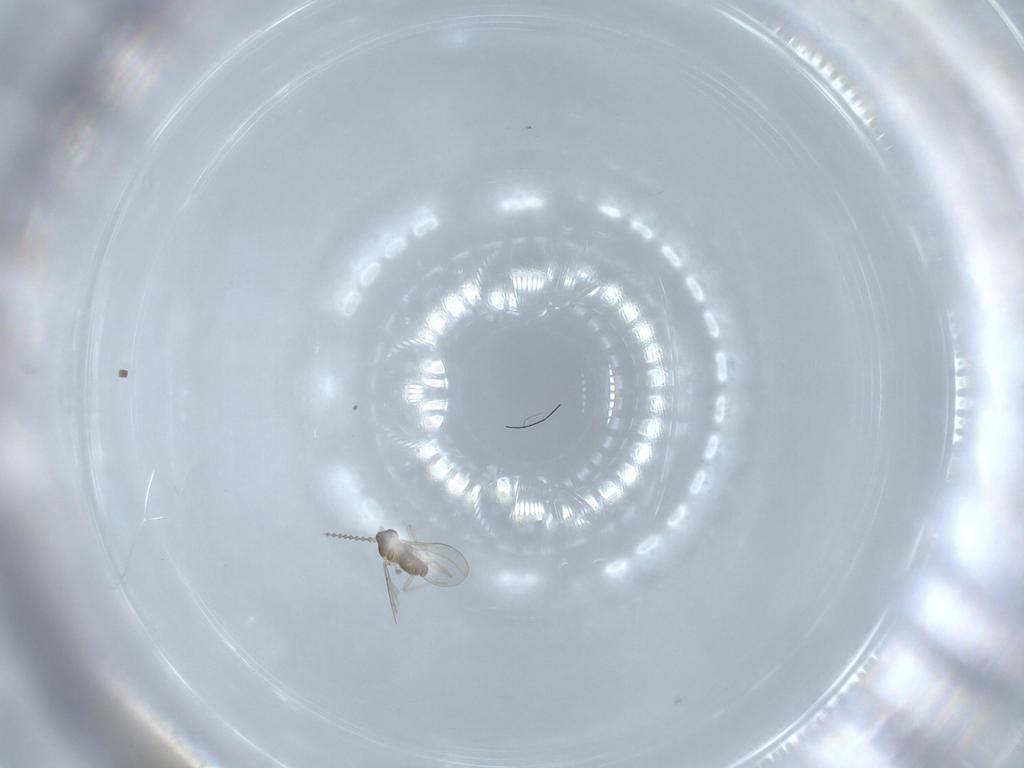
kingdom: Animalia
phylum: Arthropoda
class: Insecta
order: Diptera
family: Cecidomyiidae
